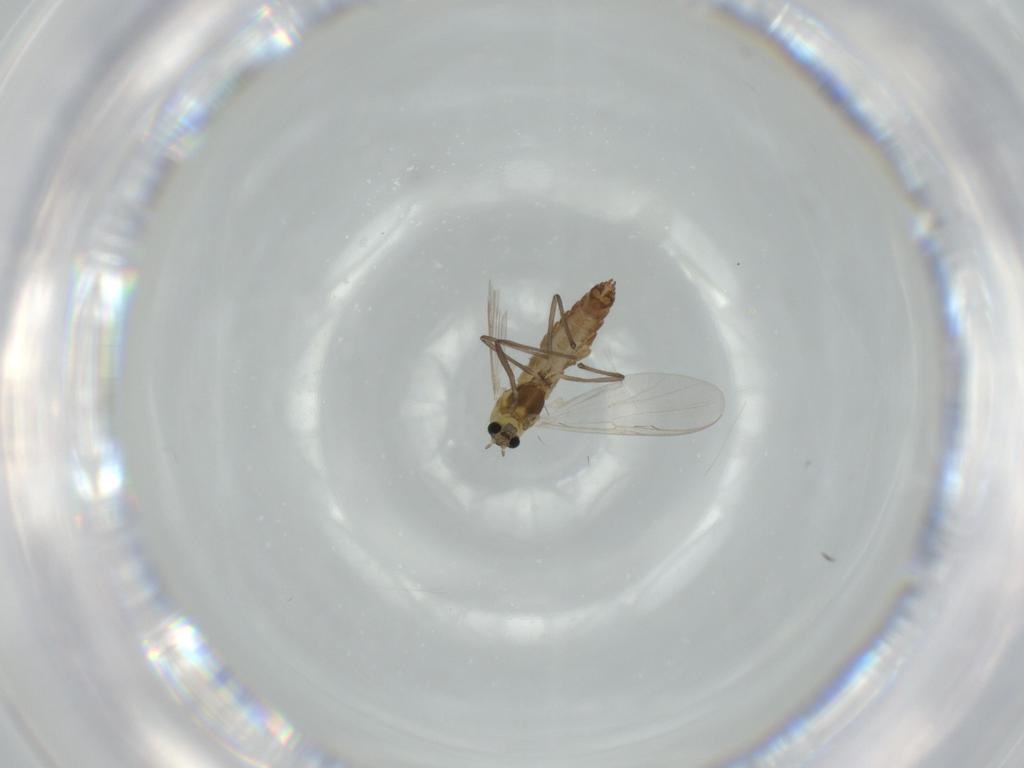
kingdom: Animalia
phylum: Arthropoda
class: Insecta
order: Diptera
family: Chironomidae
